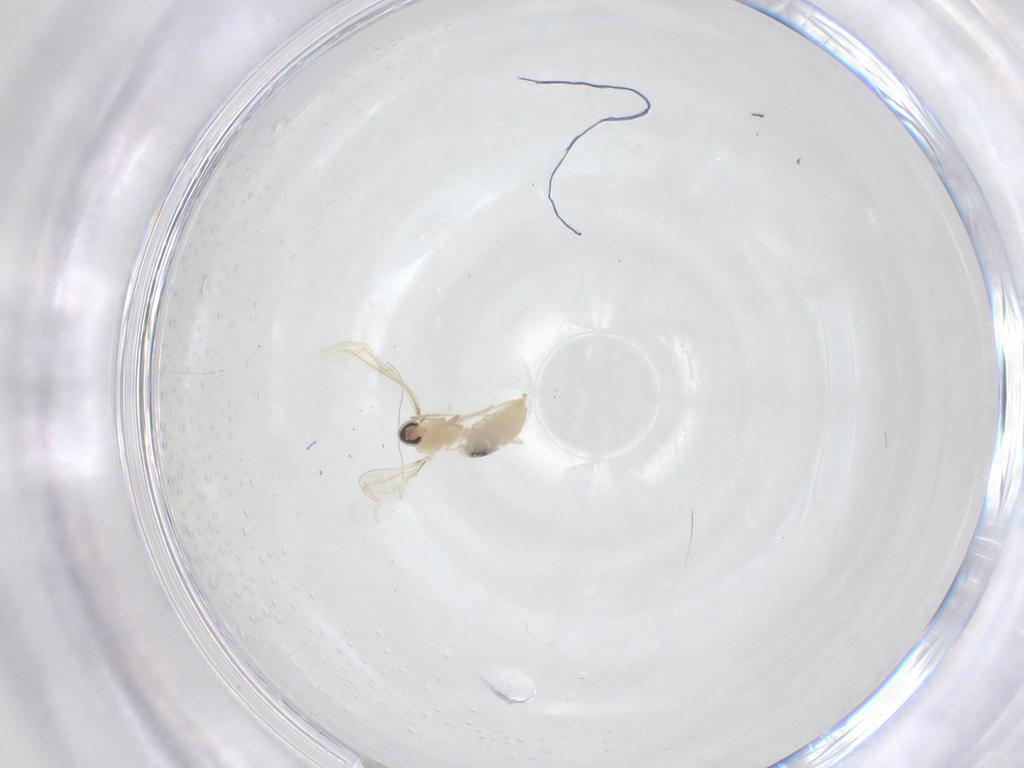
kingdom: Animalia
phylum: Arthropoda
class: Insecta
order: Diptera
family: Cecidomyiidae
